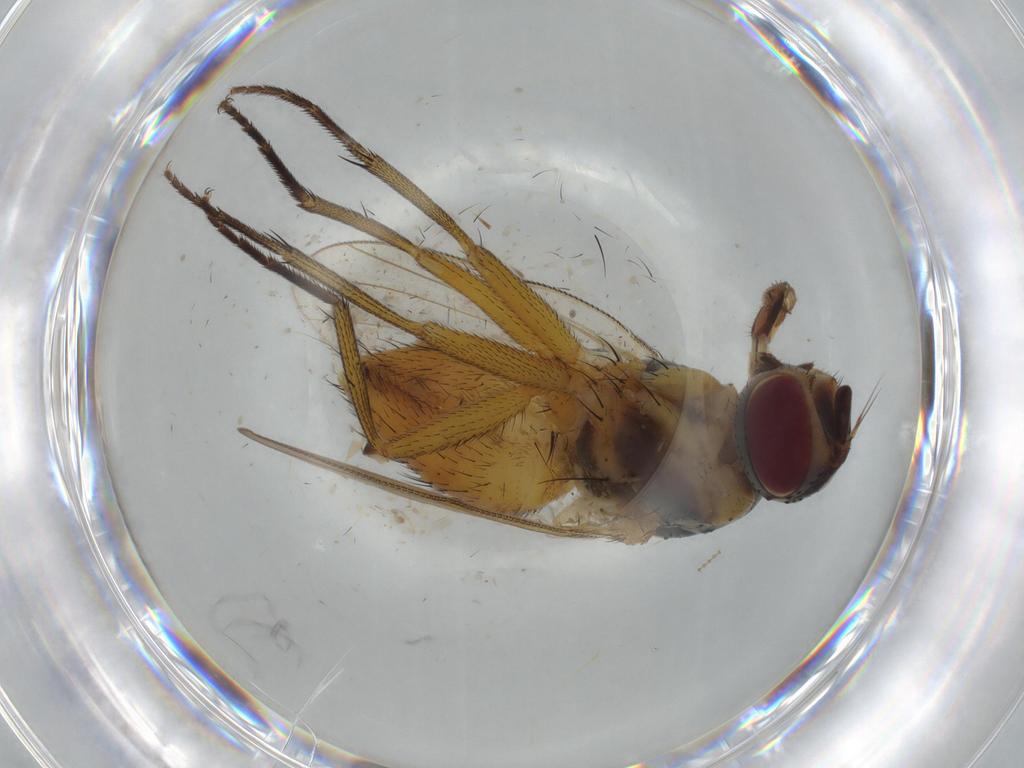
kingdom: Animalia
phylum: Arthropoda
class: Insecta
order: Diptera
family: Muscidae
